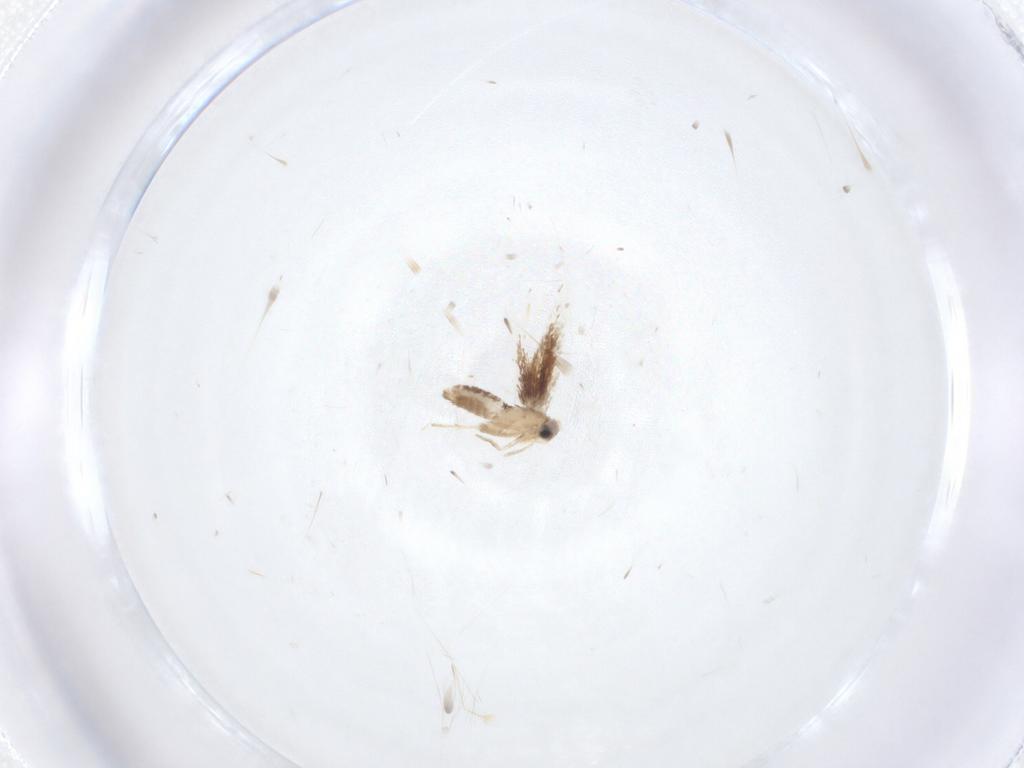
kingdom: Animalia
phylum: Arthropoda
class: Insecta
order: Lepidoptera
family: Nepticulidae
